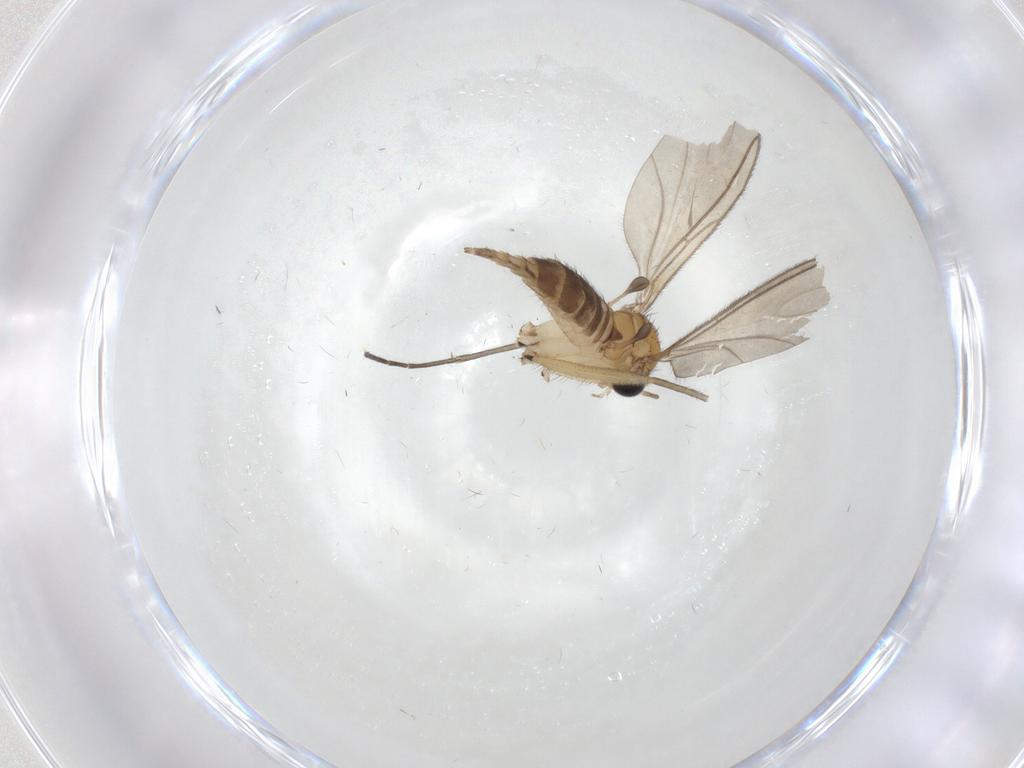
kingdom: Animalia
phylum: Arthropoda
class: Insecta
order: Diptera
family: Sciaridae
